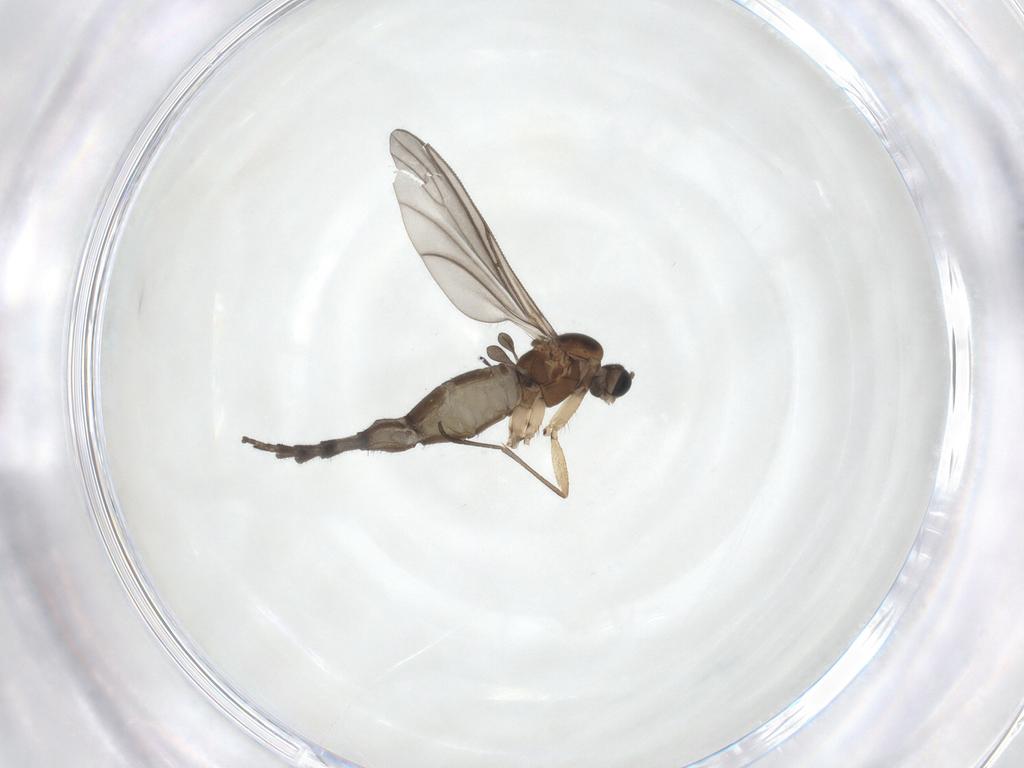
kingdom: Animalia
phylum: Arthropoda
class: Insecta
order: Diptera
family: Sciaridae
